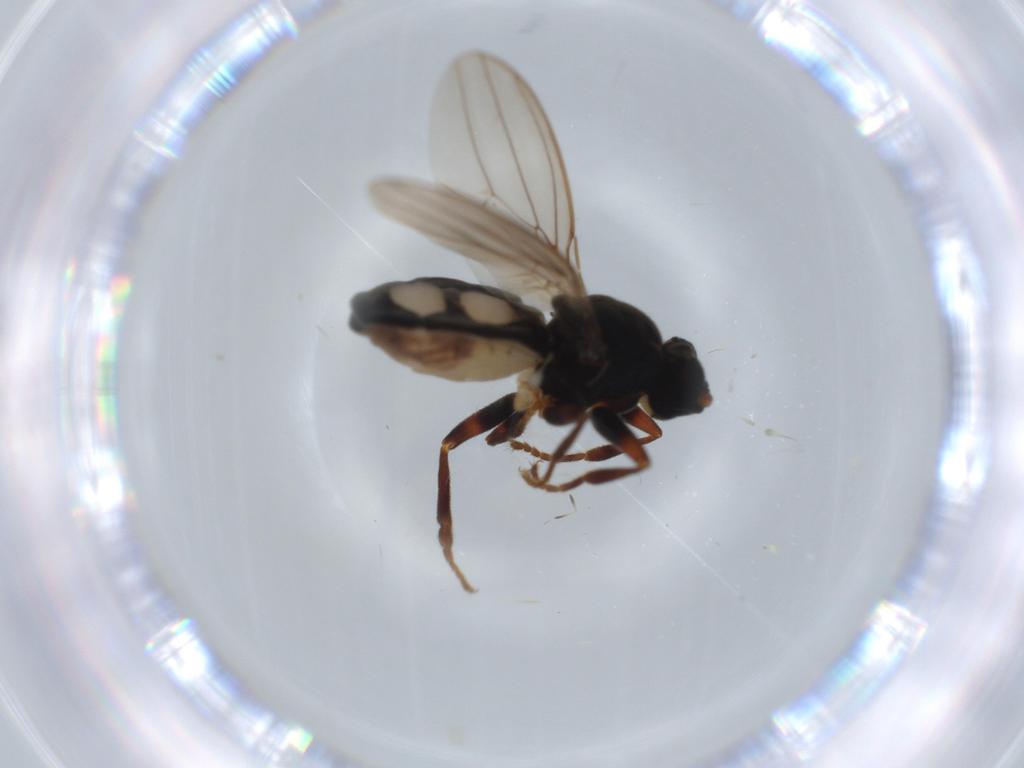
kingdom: Animalia
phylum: Arthropoda
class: Insecta
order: Diptera
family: Sphaeroceridae
